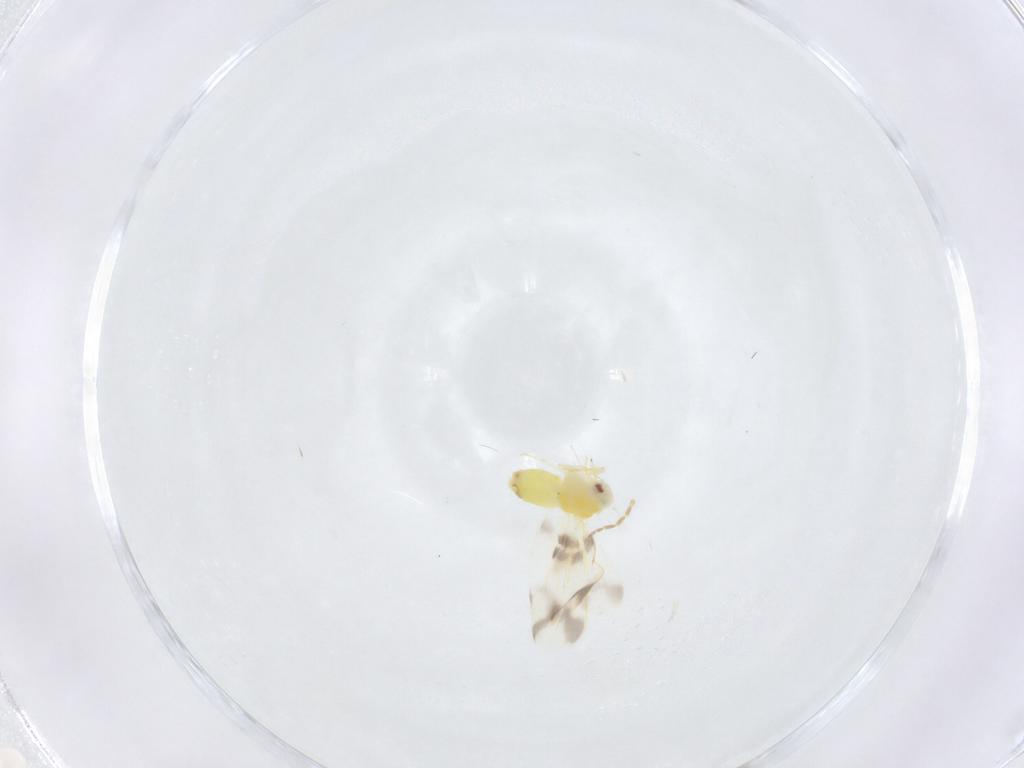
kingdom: Animalia
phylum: Arthropoda
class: Insecta
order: Hemiptera
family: Aleyrodidae
